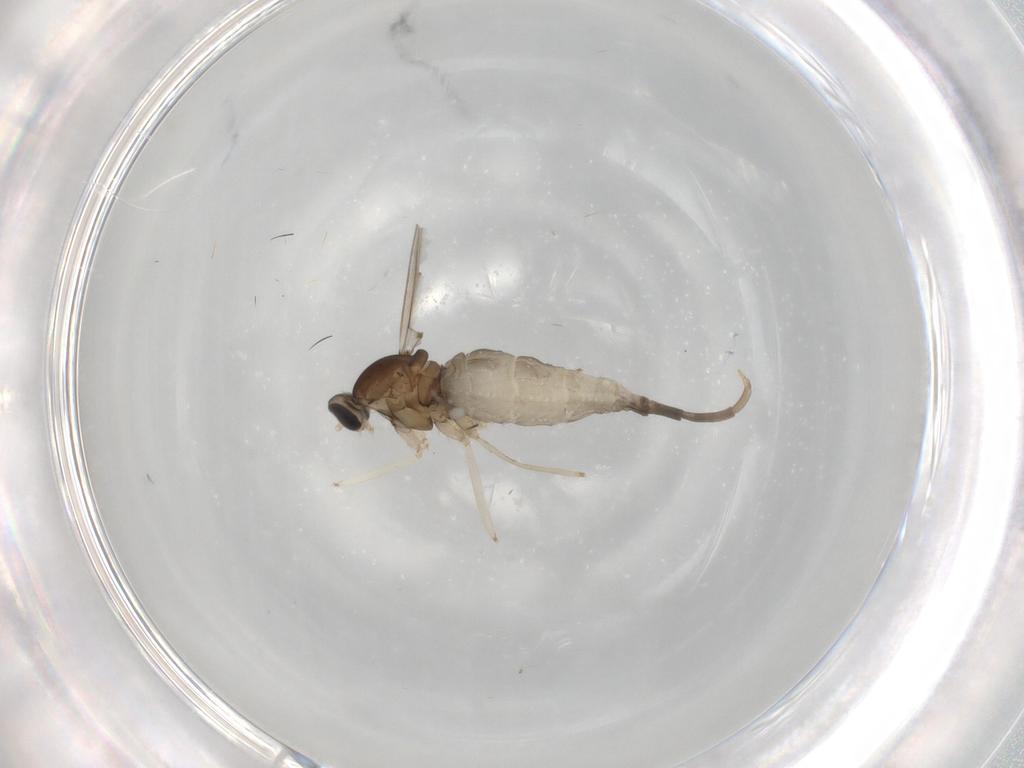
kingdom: Animalia
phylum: Arthropoda
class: Insecta
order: Diptera
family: Cecidomyiidae
